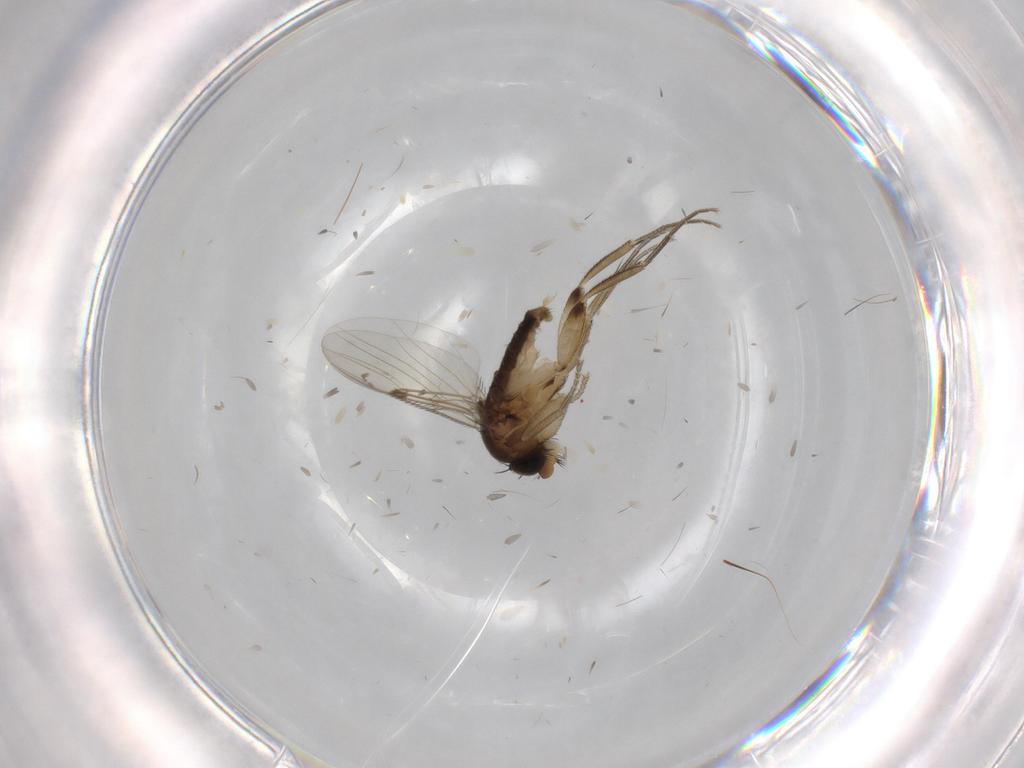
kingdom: Animalia
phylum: Arthropoda
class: Insecta
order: Diptera
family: Phoridae
